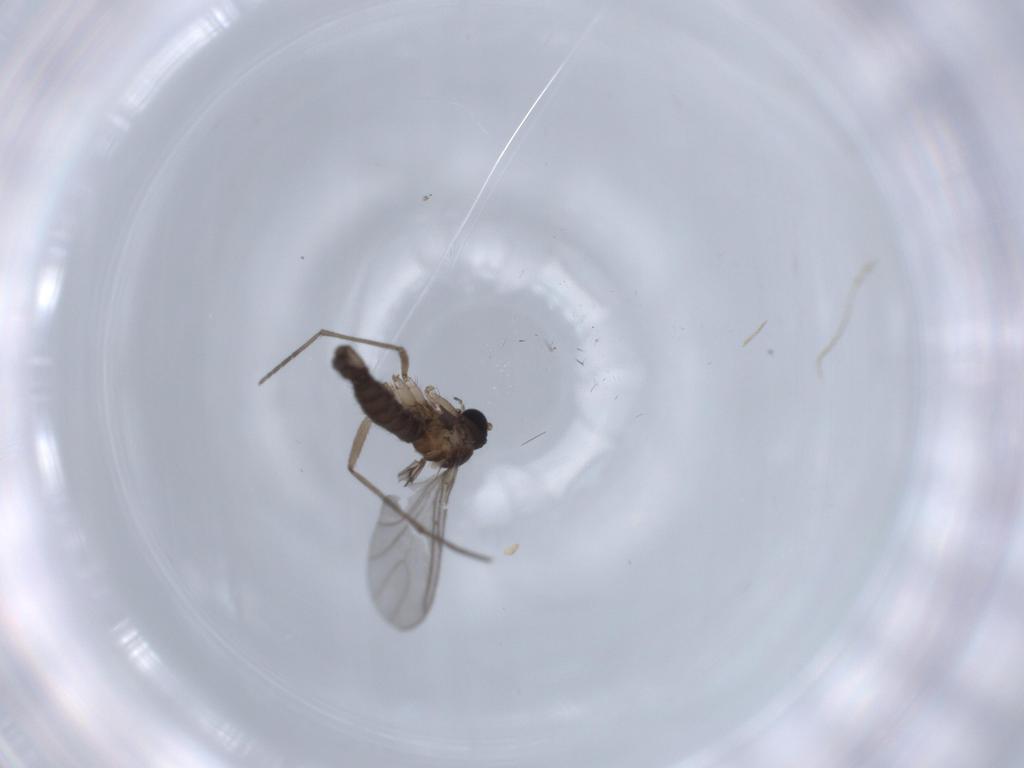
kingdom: Animalia
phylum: Arthropoda
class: Insecta
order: Diptera
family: Sciaridae
